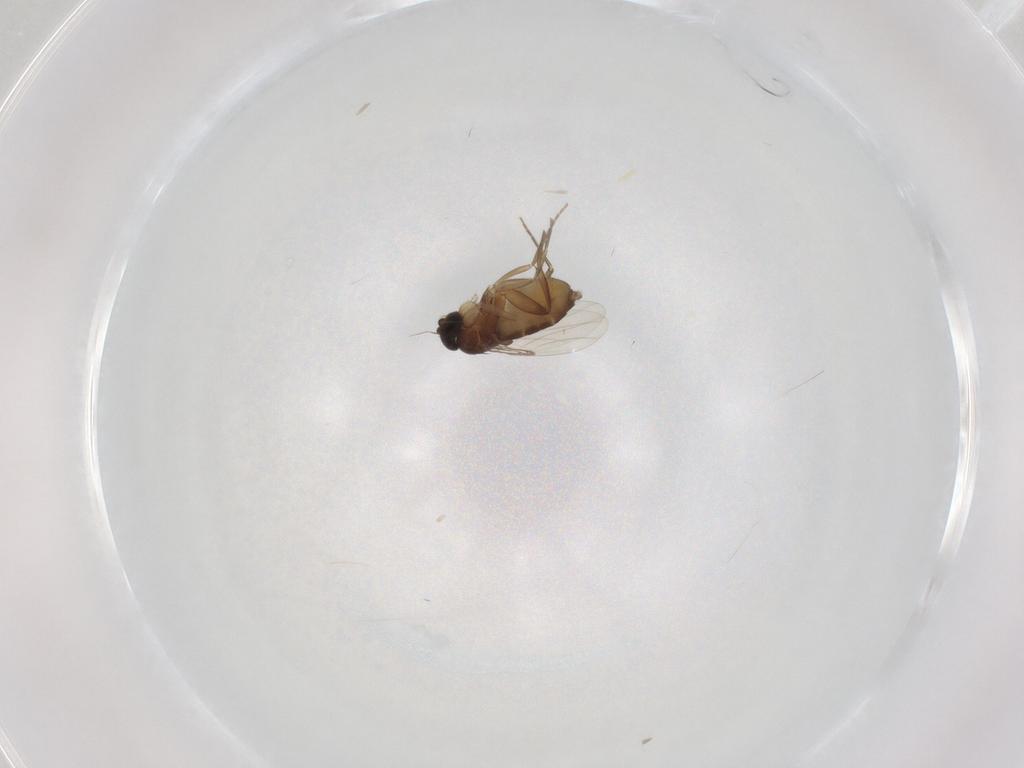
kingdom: Animalia
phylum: Arthropoda
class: Insecta
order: Diptera
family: Phoridae
